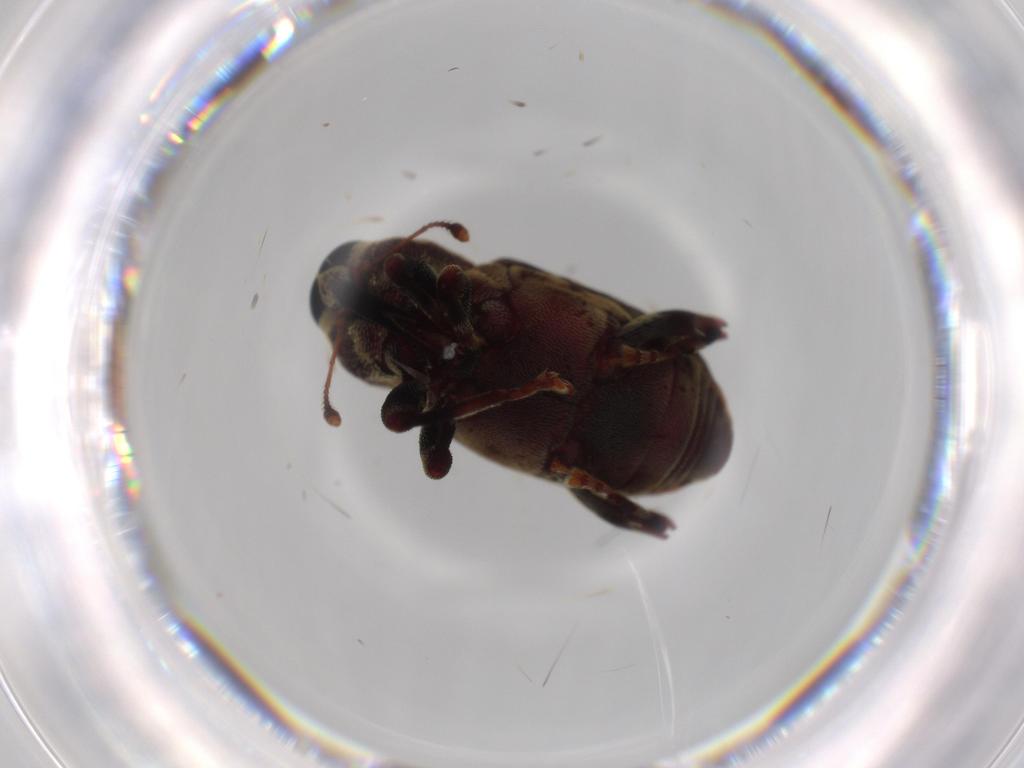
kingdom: Animalia
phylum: Arthropoda
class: Insecta
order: Coleoptera
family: Curculionidae
